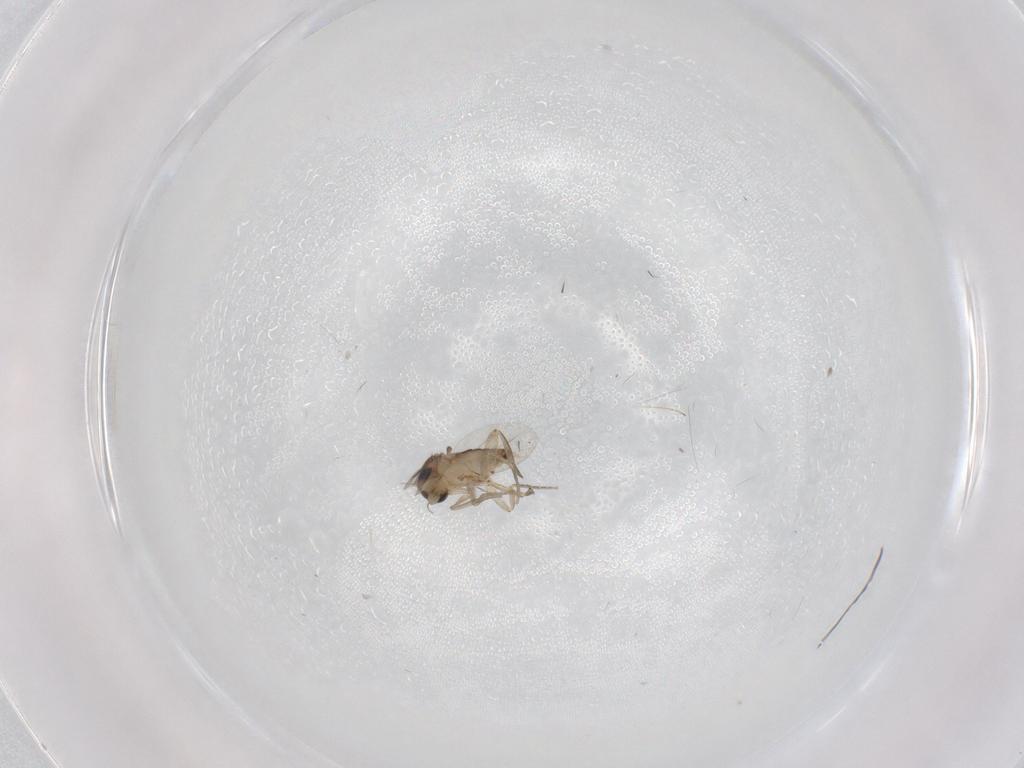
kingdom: Animalia
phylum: Arthropoda
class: Insecta
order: Diptera
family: Phoridae
